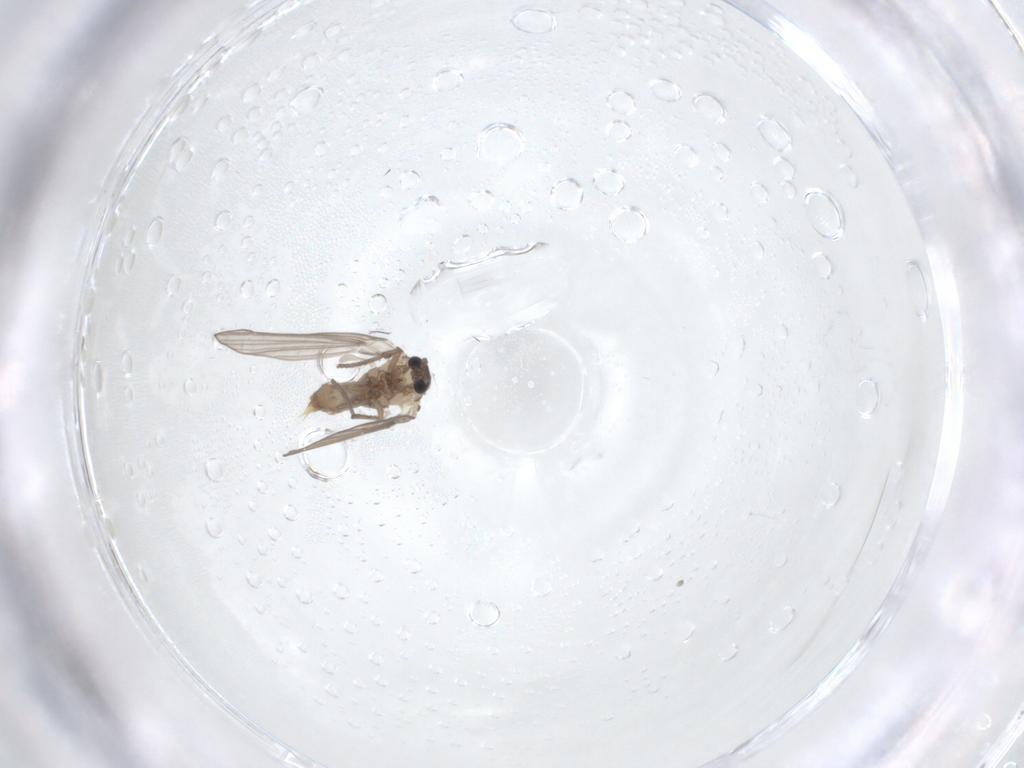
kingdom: Animalia
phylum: Arthropoda
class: Insecta
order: Diptera
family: Psychodidae
